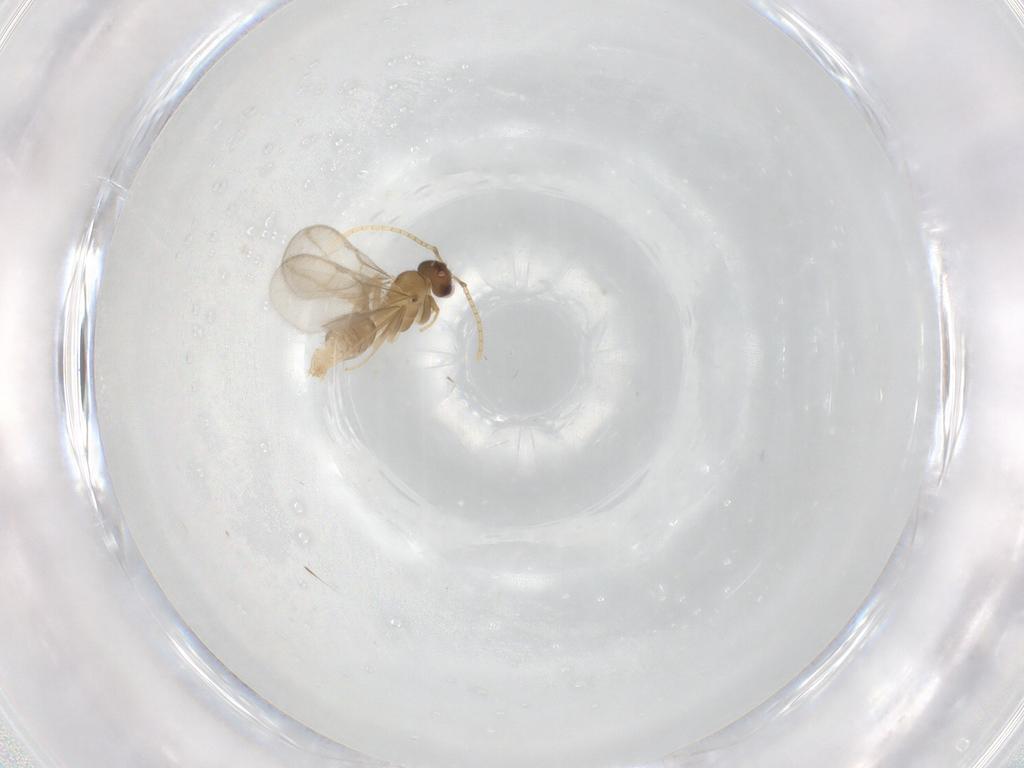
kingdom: Animalia
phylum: Arthropoda
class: Insecta
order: Hymenoptera
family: Formicidae
